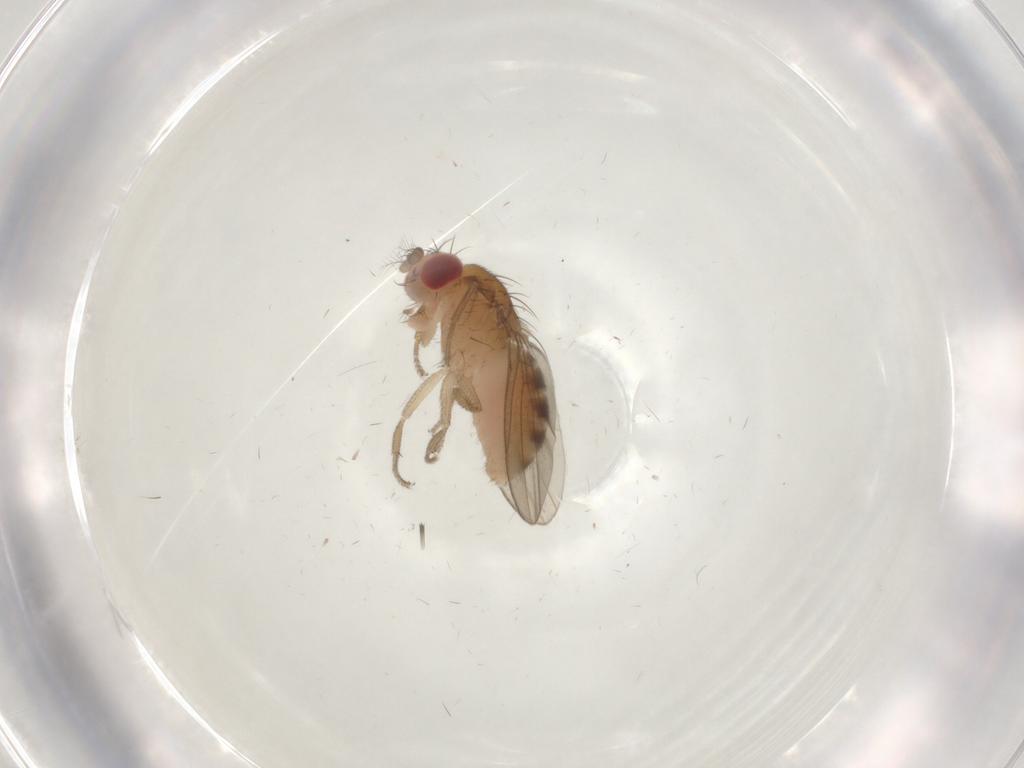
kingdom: Animalia
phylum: Arthropoda
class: Insecta
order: Diptera
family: Drosophilidae
